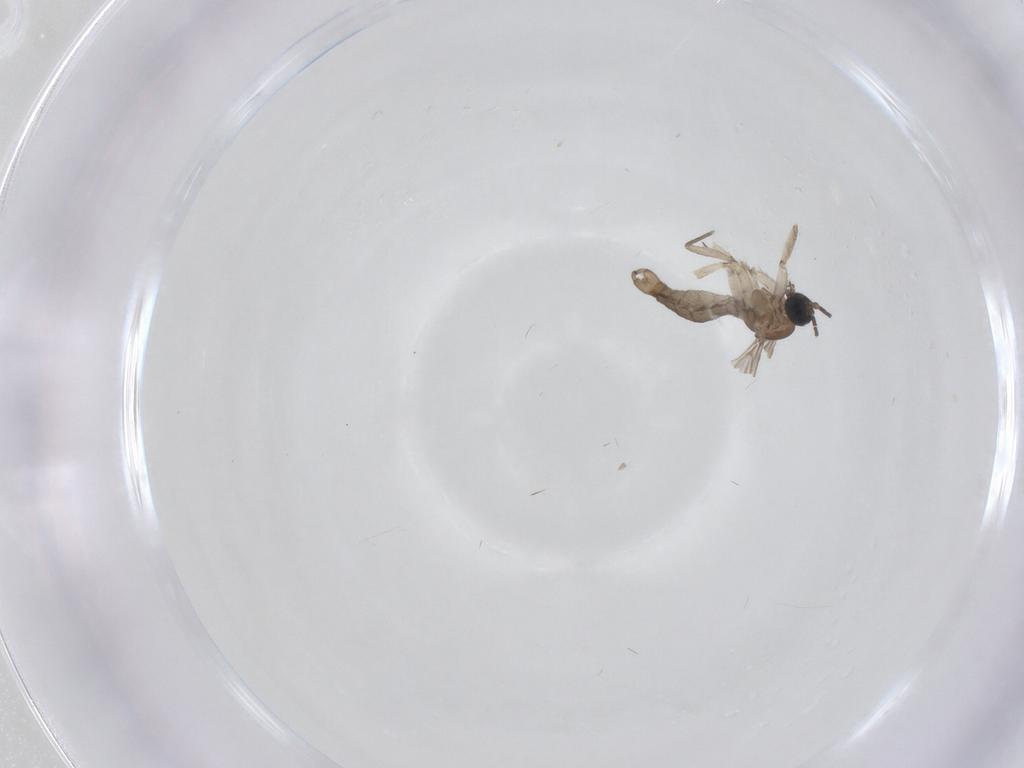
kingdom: Animalia
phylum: Arthropoda
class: Insecta
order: Diptera
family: Sciaridae
